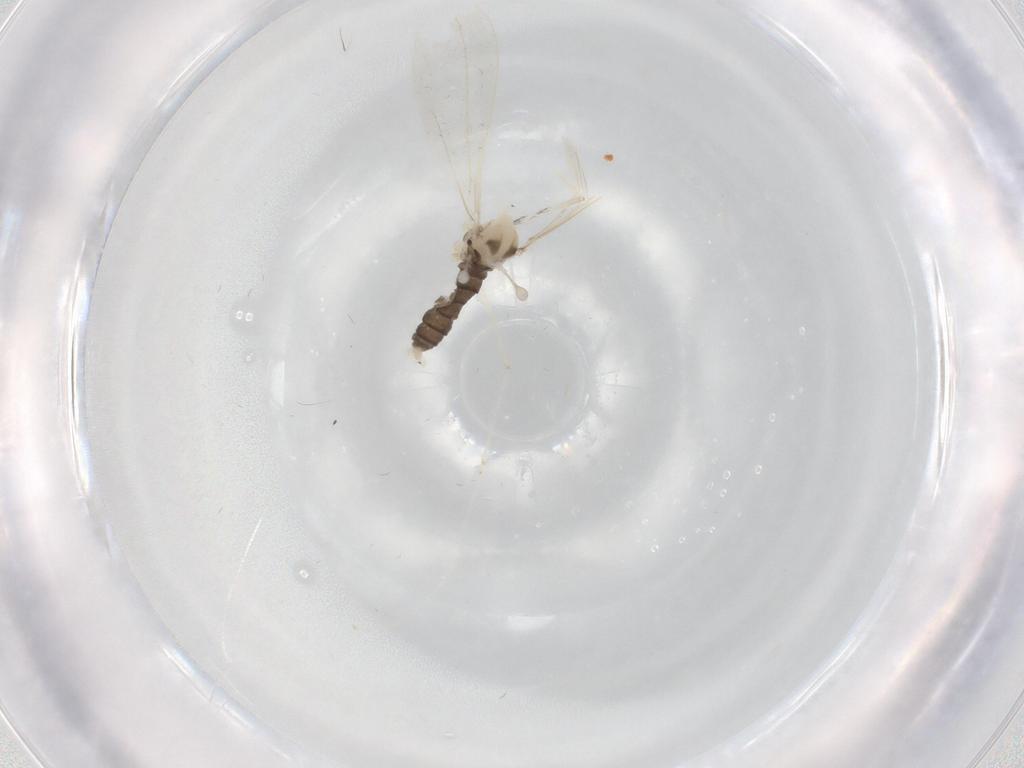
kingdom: Animalia
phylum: Arthropoda
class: Insecta
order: Diptera
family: Cecidomyiidae
